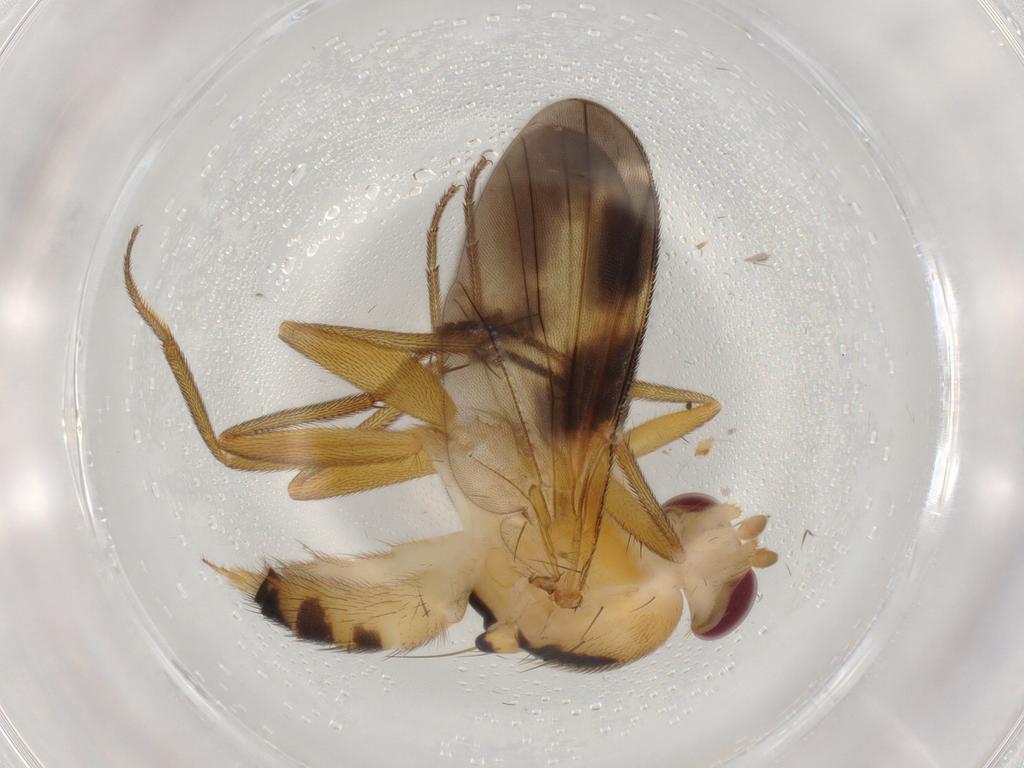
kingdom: Animalia
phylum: Arthropoda
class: Insecta
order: Diptera
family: Clusiidae
